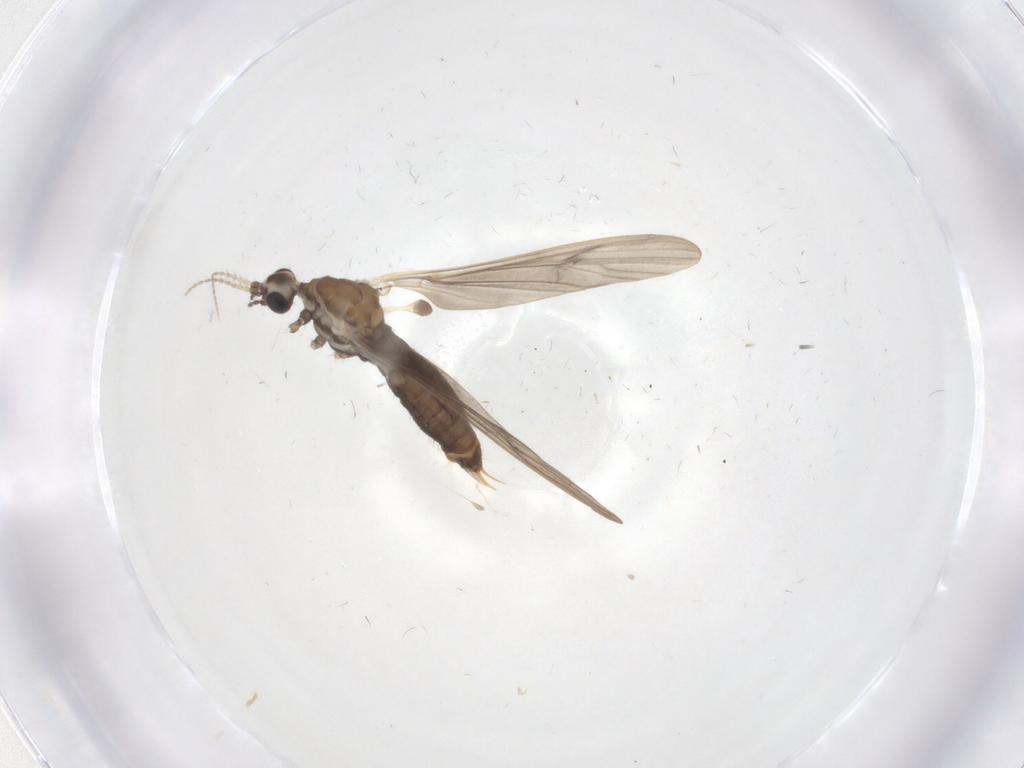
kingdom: Animalia
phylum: Arthropoda
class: Insecta
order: Diptera
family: Limoniidae
